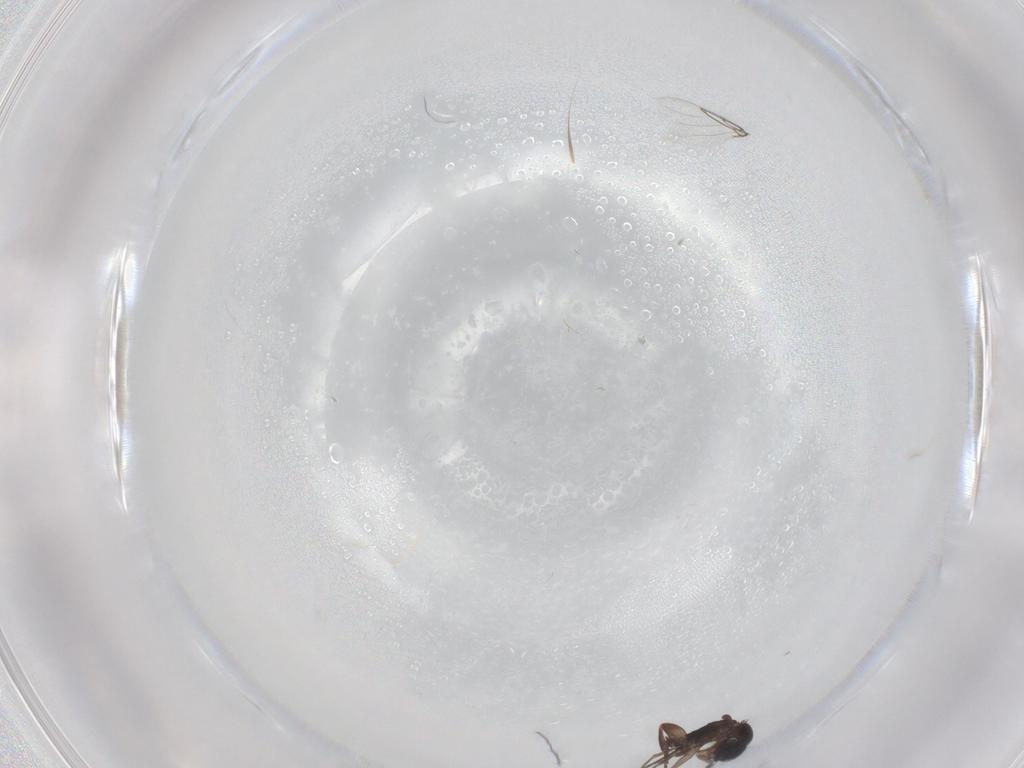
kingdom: Animalia
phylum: Arthropoda
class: Insecta
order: Diptera
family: Phoridae
